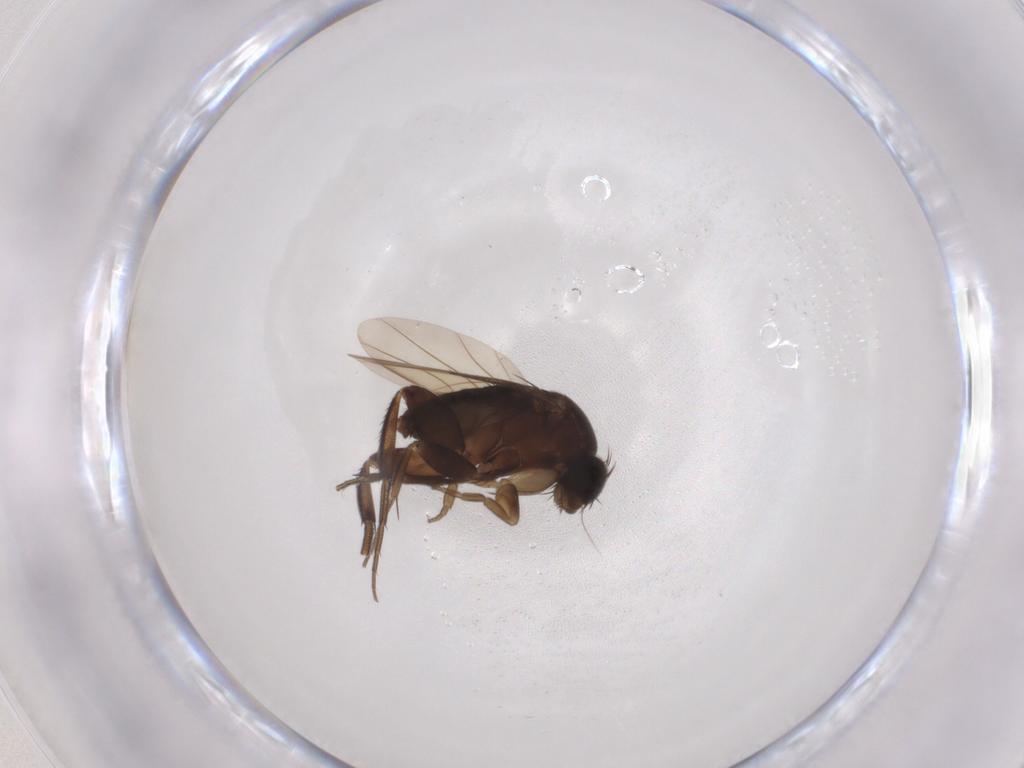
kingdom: Animalia
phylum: Arthropoda
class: Insecta
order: Diptera
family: Phoridae
